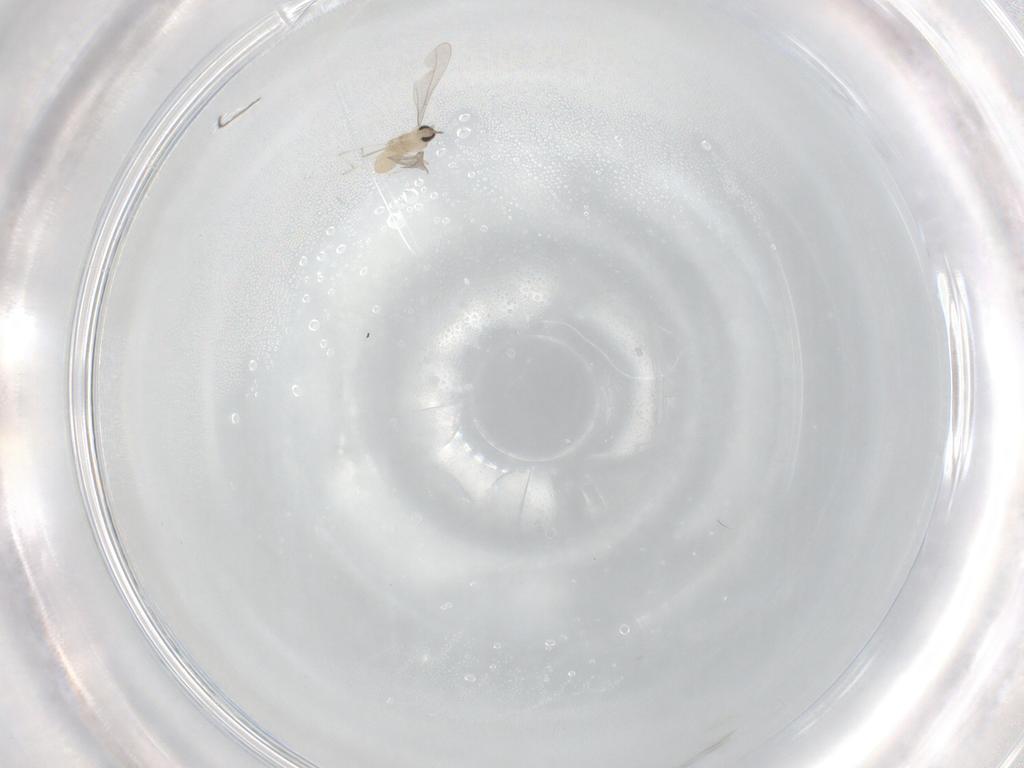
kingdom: Animalia
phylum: Arthropoda
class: Insecta
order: Diptera
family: Cecidomyiidae
